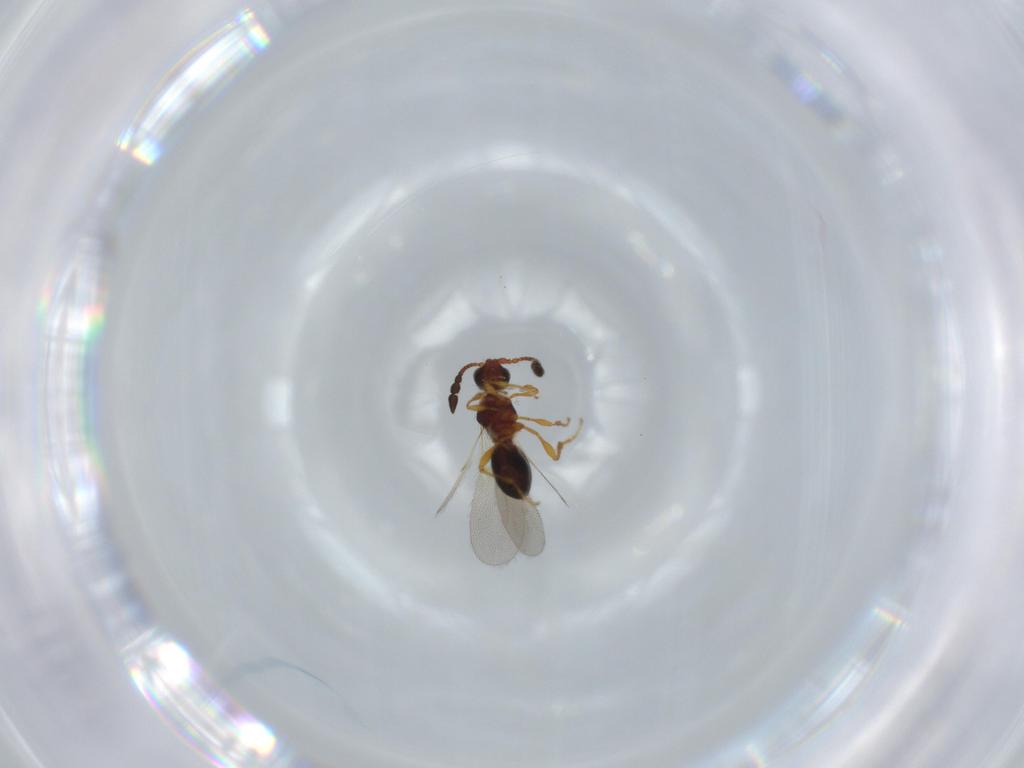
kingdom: Animalia
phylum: Arthropoda
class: Insecta
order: Hymenoptera
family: Diapriidae
